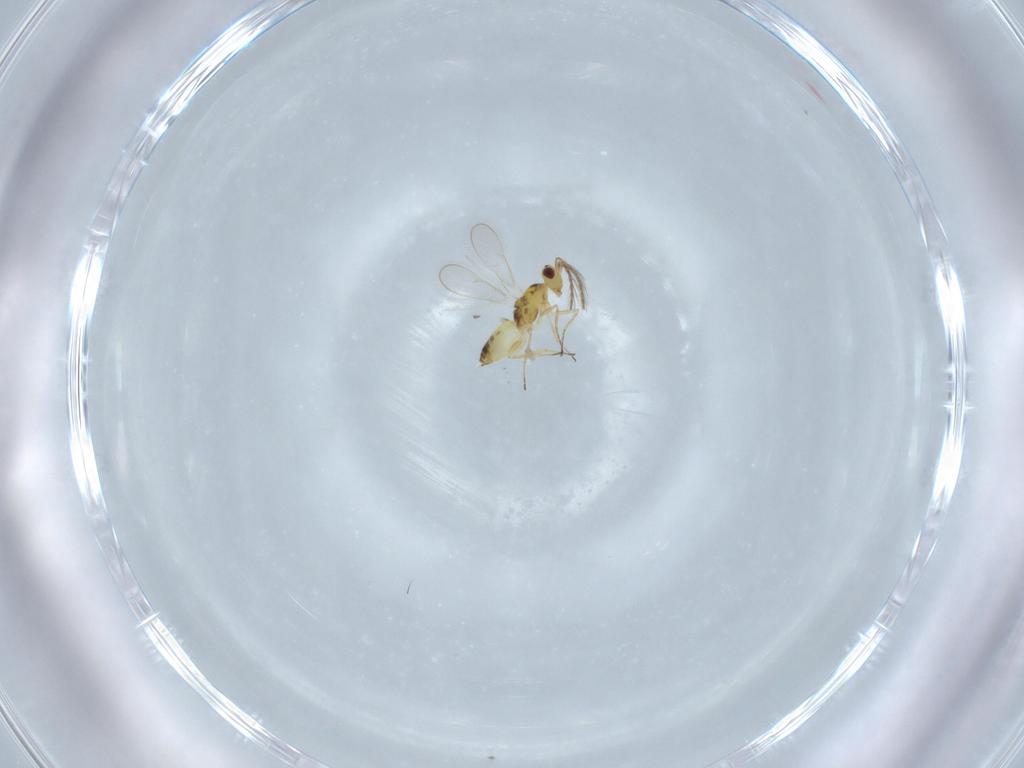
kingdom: Animalia
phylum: Arthropoda
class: Insecta
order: Hymenoptera
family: Eulophidae
